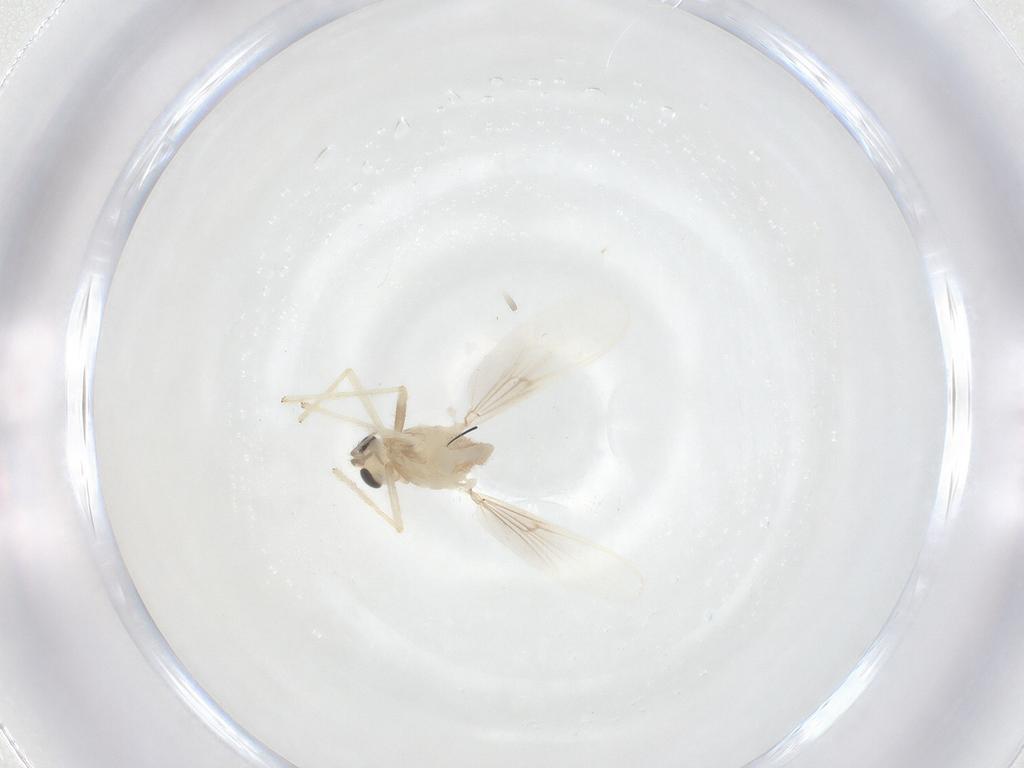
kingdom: Animalia
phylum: Arthropoda
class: Insecta
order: Diptera
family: Chironomidae
